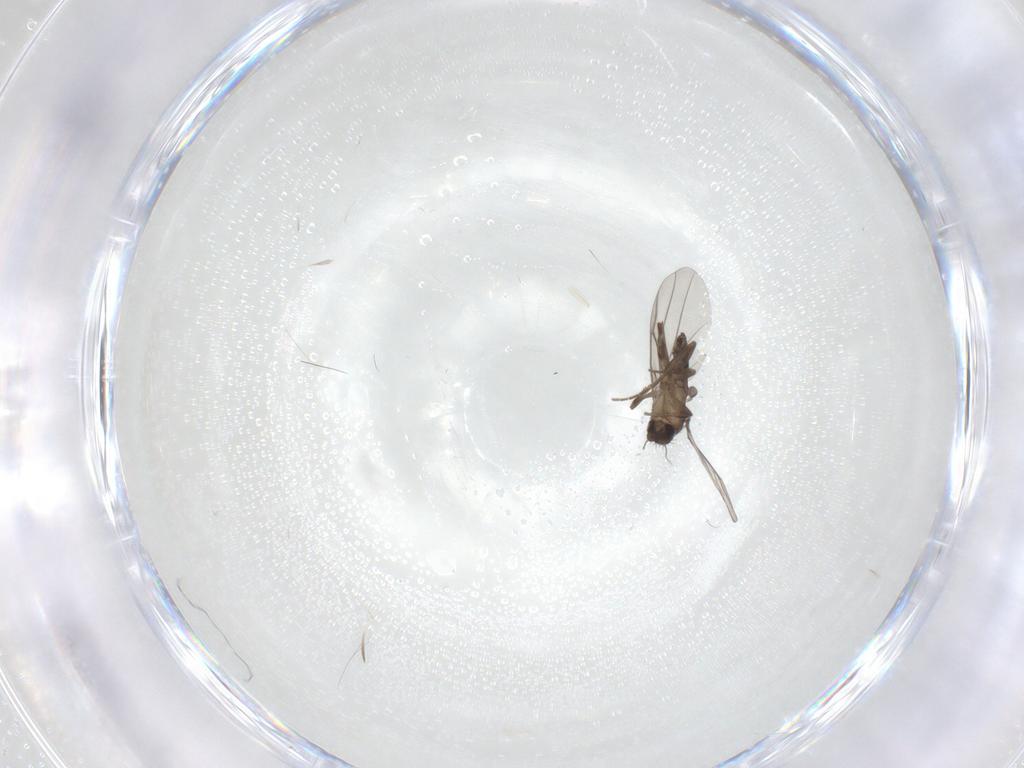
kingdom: Animalia
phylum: Arthropoda
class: Insecta
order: Diptera
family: Phoridae
